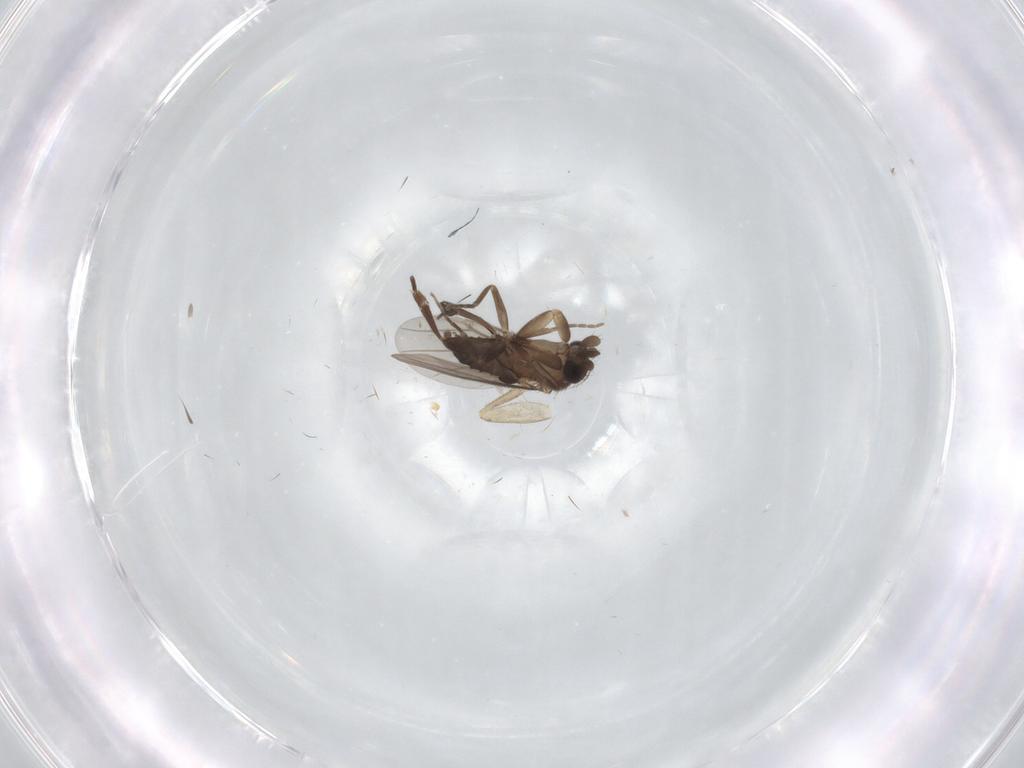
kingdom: Animalia
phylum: Arthropoda
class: Insecta
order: Diptera
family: Phoridae
